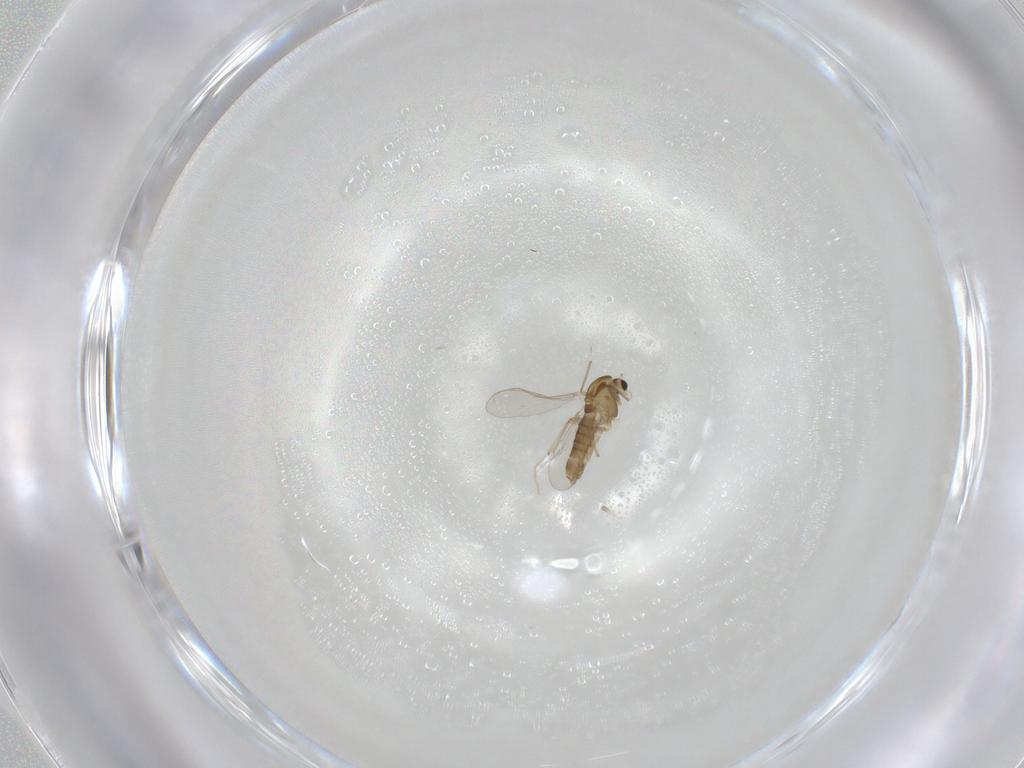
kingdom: Animalia
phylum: Arthropoda
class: Insecta
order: Diptera
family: Chironomidae
